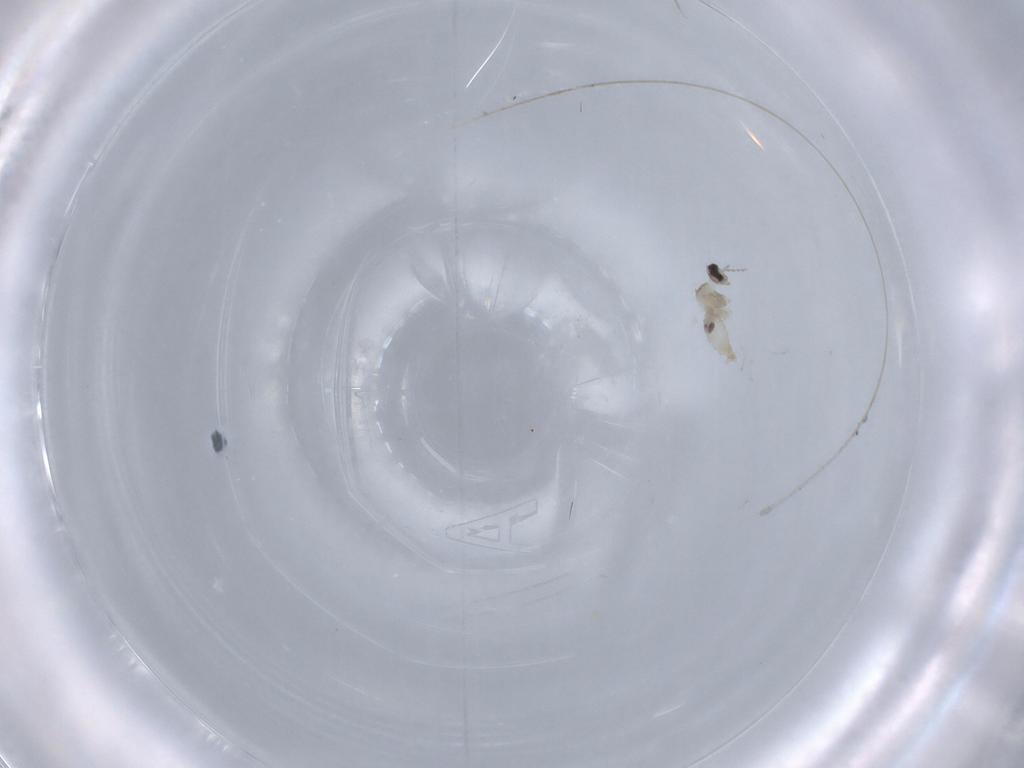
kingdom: Animalia
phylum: Arthropoda
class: Insecta
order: Diptera
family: Cecidomyiidae
